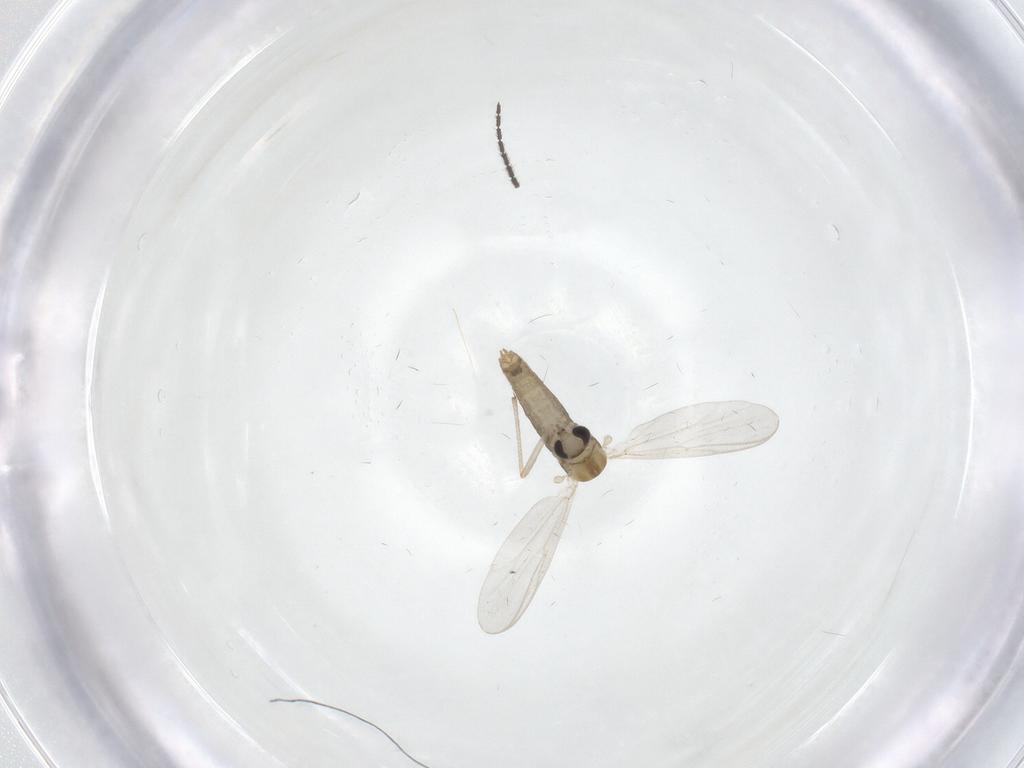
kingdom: Animalia
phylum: Arthropoda
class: Insecta
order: Diptera
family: Chironomidae
